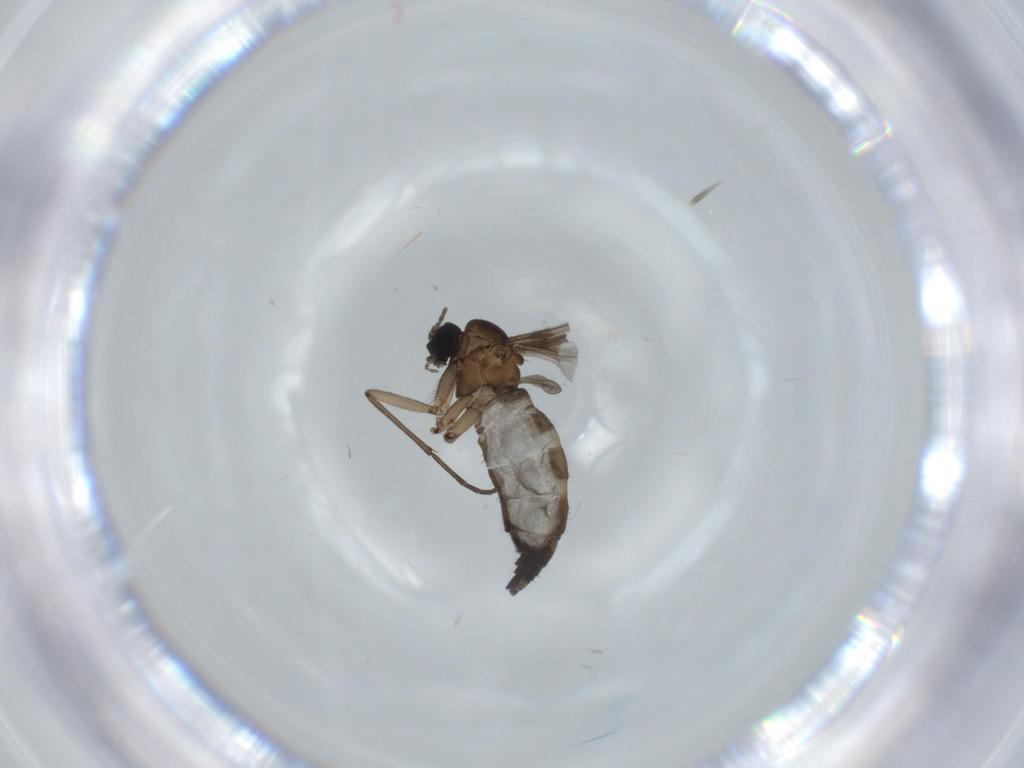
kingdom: Animalia
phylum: Arthropoda
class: Insecta
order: Diptera
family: Sciaridae
